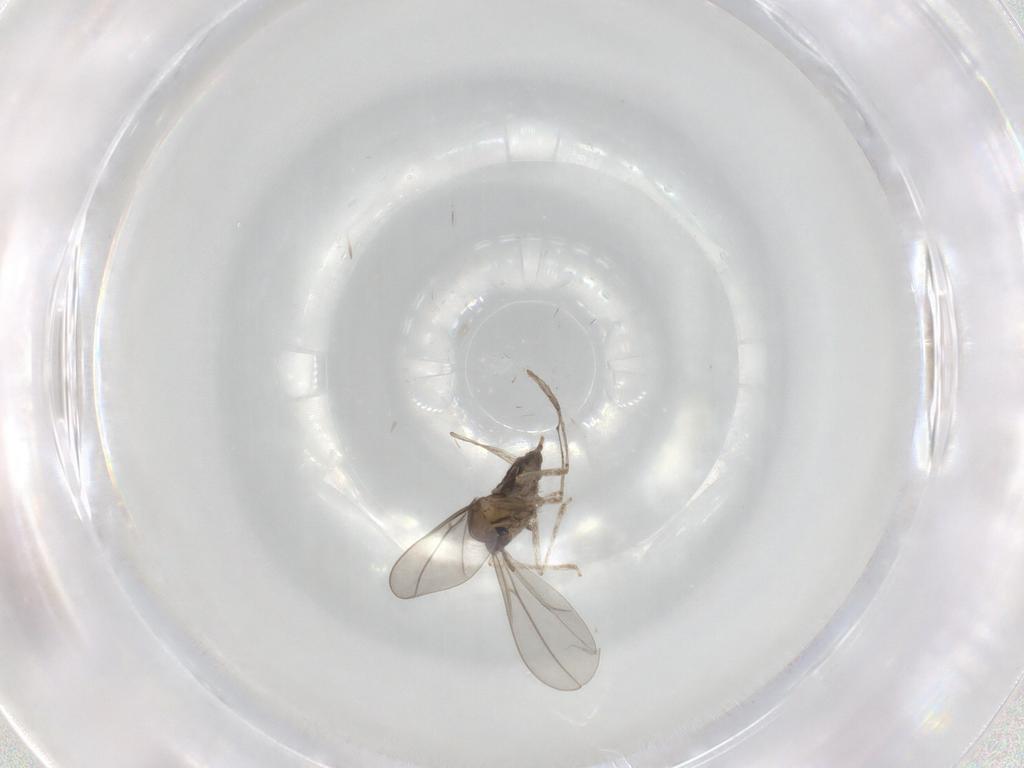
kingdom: Animalia
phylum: Arthropoda
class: Insecta
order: Diptera
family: Cecidomyiidae
